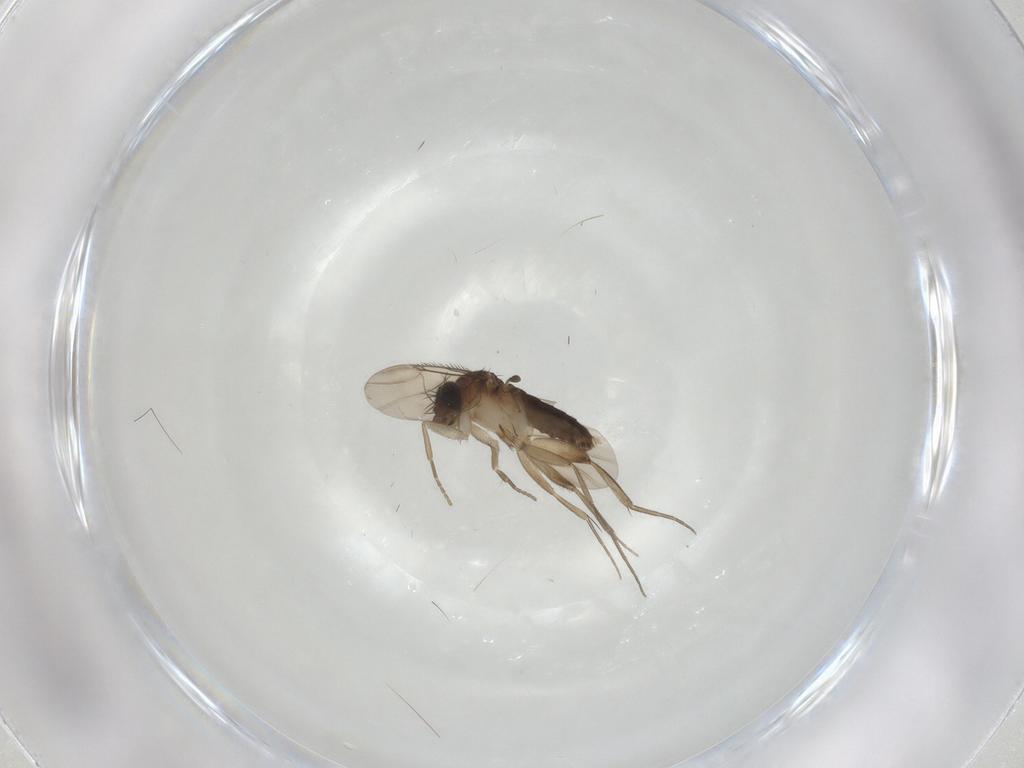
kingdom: Animalia
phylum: Arthropoda
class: Insecta
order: Diptera
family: Phoridae
